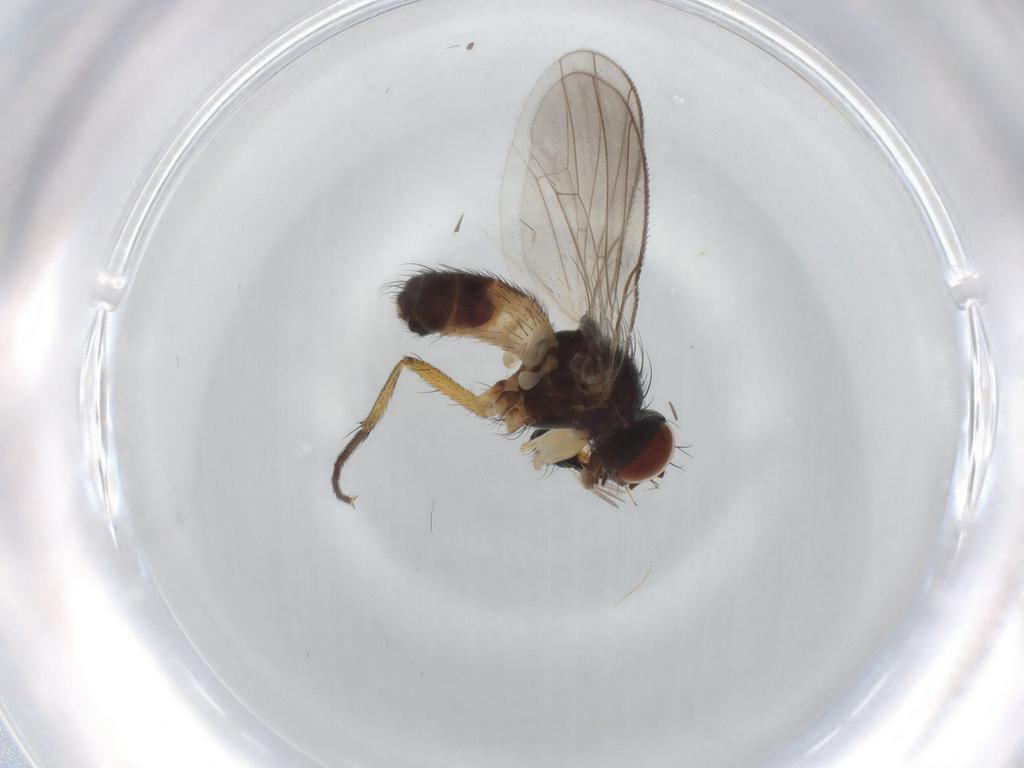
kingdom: Animalia
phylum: Arthropoda
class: Insecta
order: Diptera
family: Muscidae
